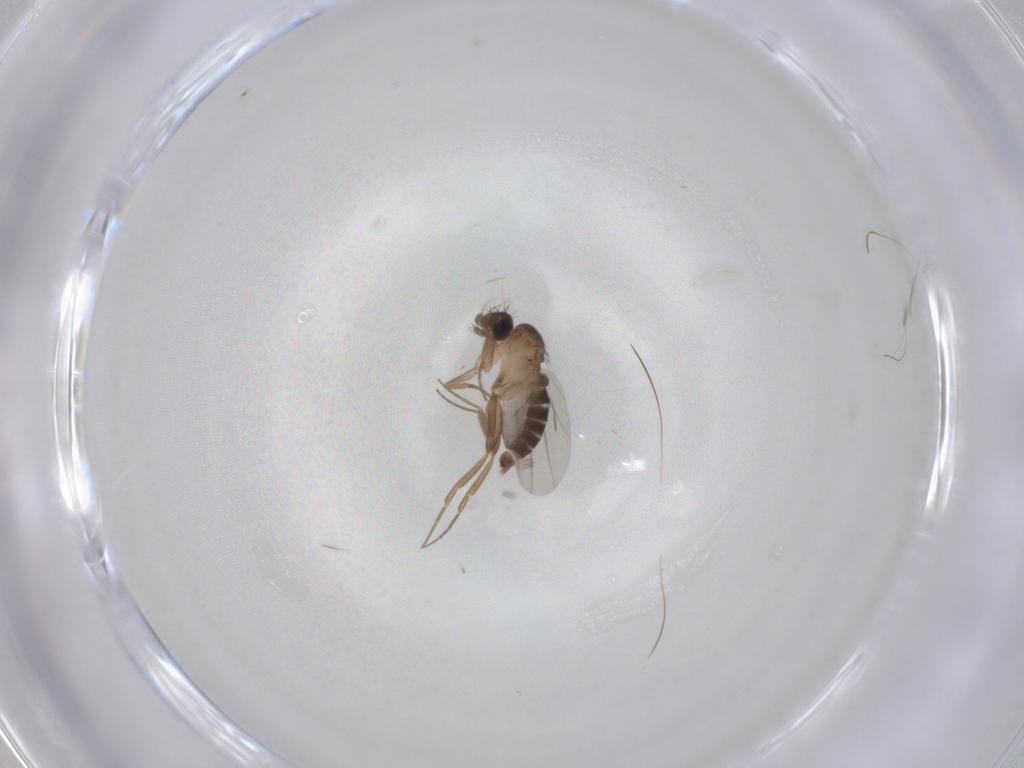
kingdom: Animalia
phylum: Arthropoda
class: Insecta
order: Diptera
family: Phoridae
